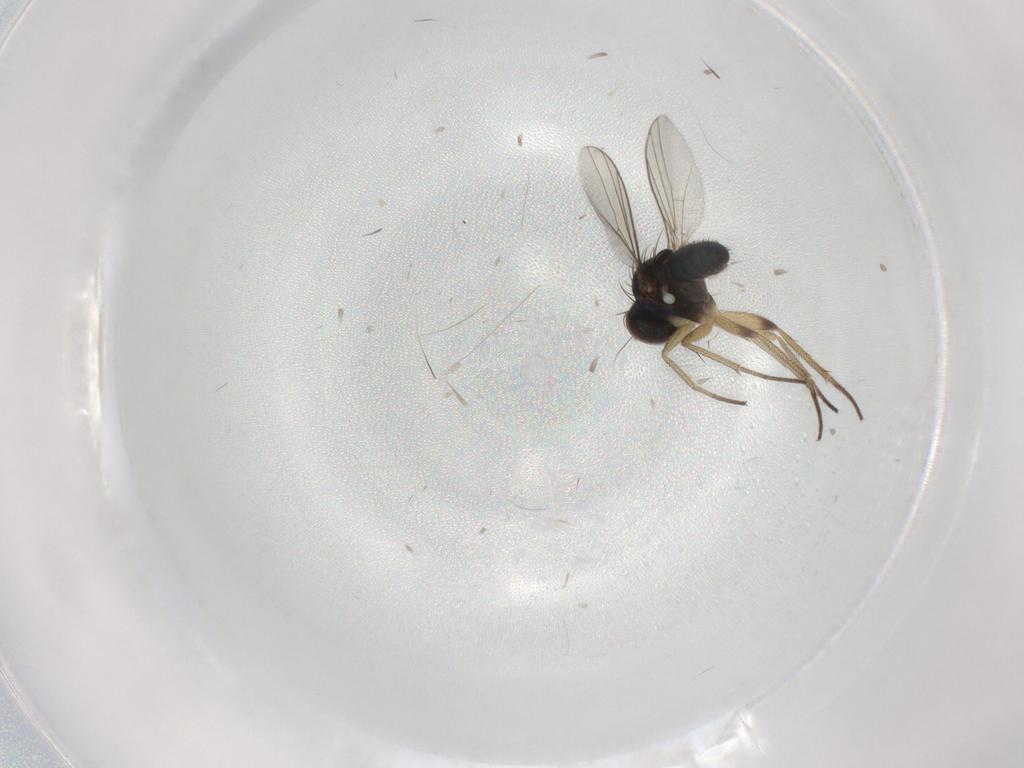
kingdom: Animalia
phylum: Arthropoda
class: Insecta
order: Diptera
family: Dolichopodidae
